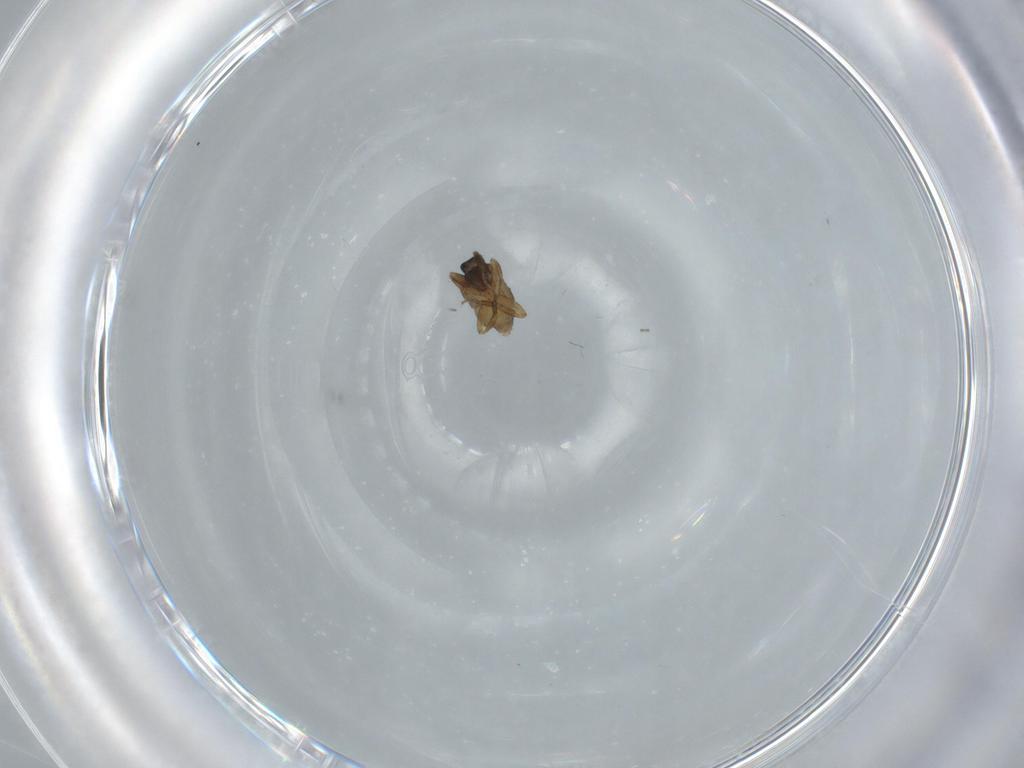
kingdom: Animalia
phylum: Arthropoda
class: Insecta
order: Diptera
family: Phoridae
